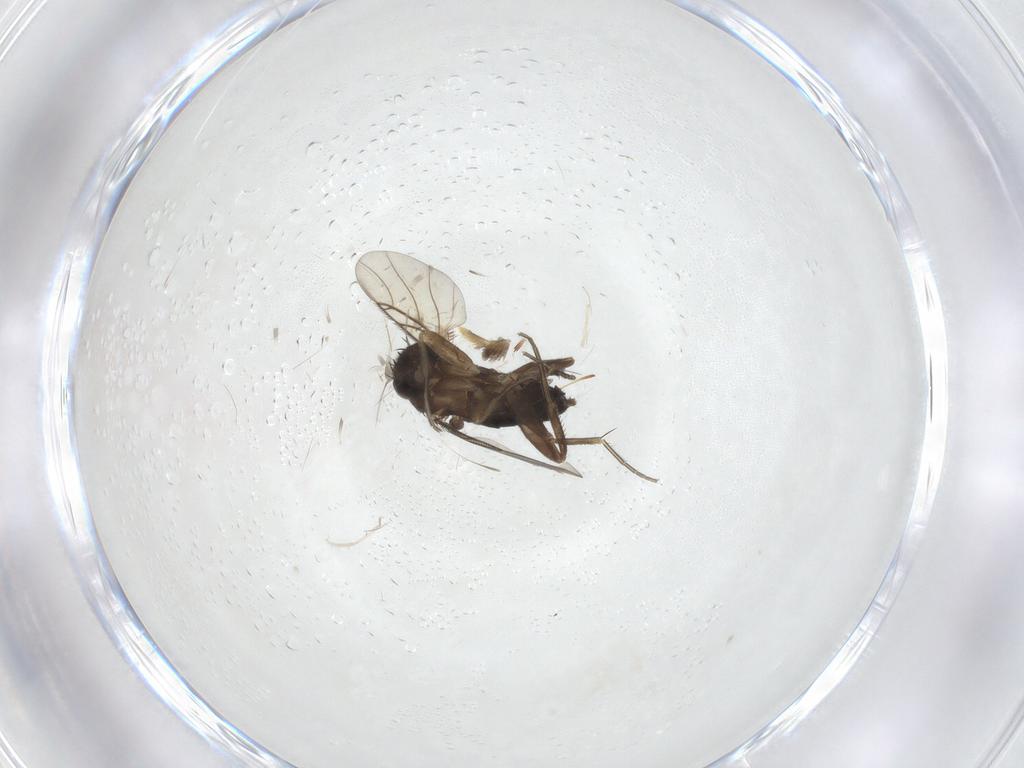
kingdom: Animalia
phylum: Arthropoda
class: Insecta
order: Diptera
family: Phoridae
